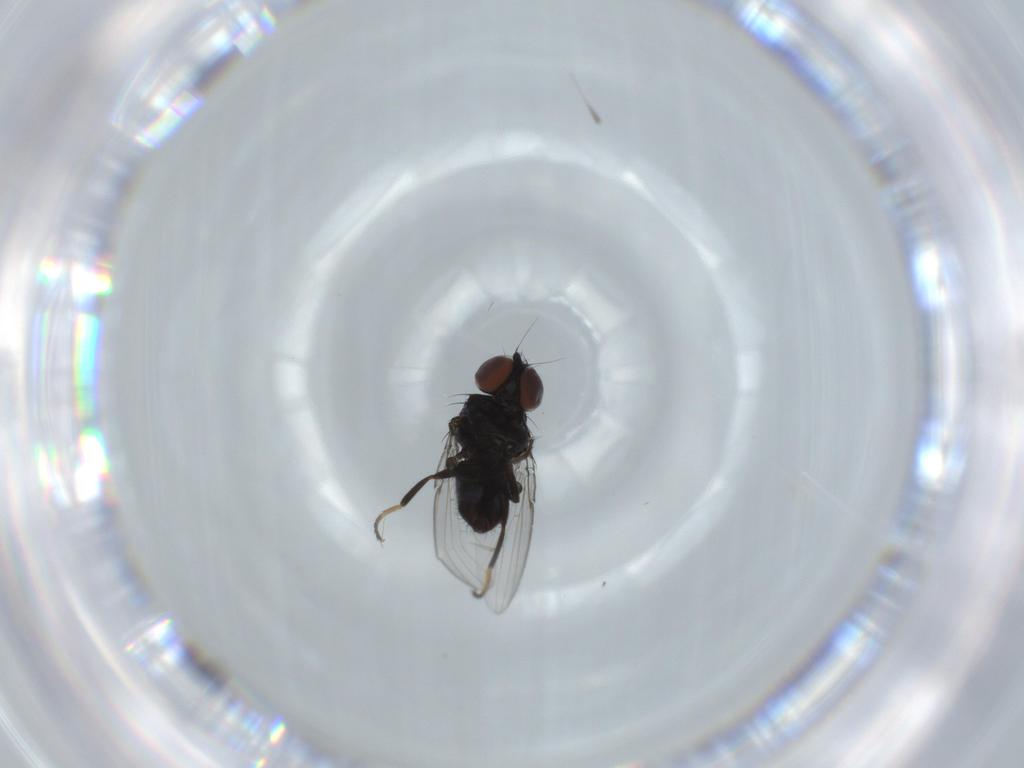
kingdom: Animalia
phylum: Arthropoda
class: Insecta
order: Diptera
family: Milichiidae
